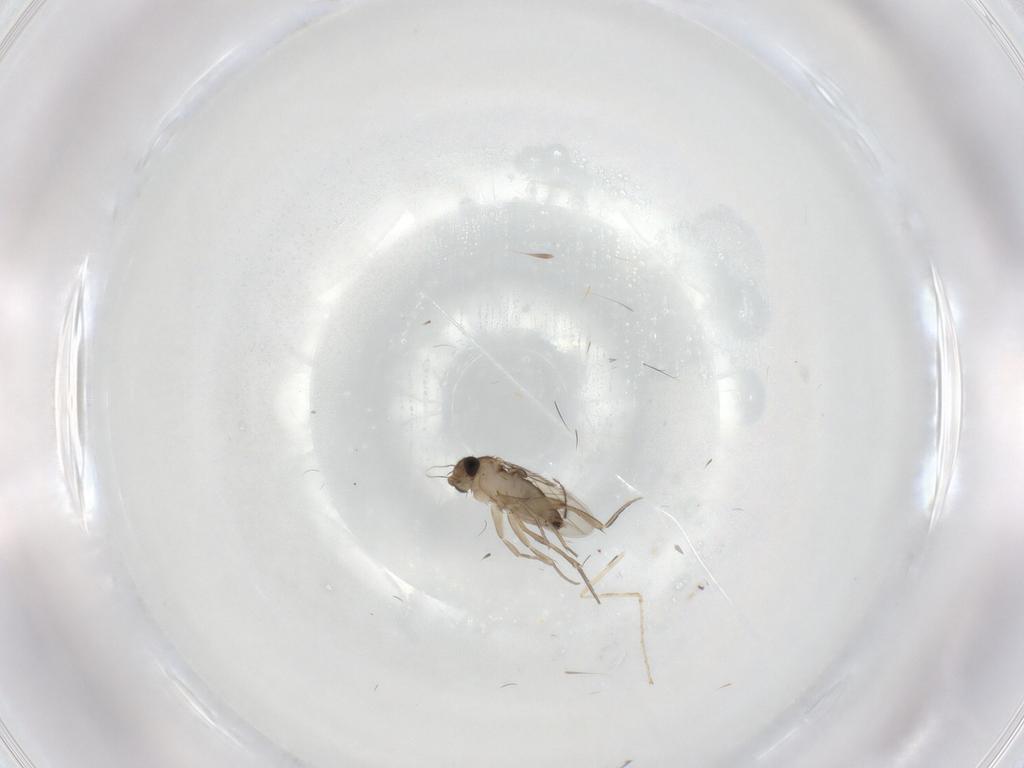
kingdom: Animalia
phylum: Arthropoda
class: Insecta
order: Diptera
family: Phoridae
